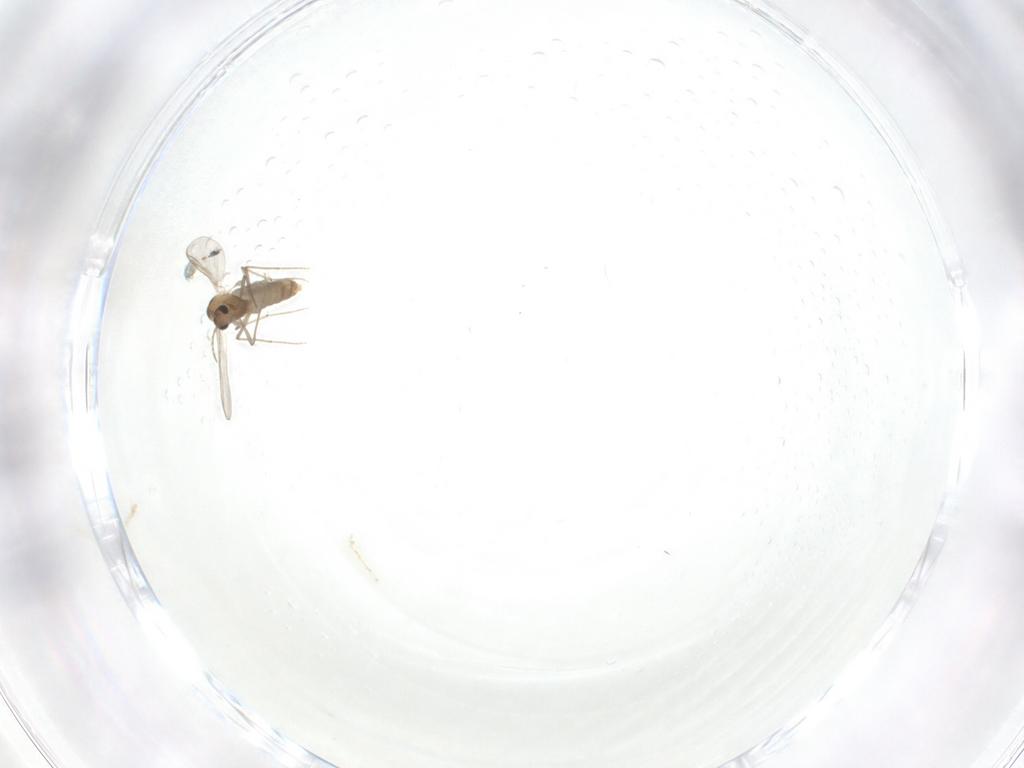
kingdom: Animalia
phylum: Arthropoda
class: Insecta
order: Diptera
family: Chironomidae
